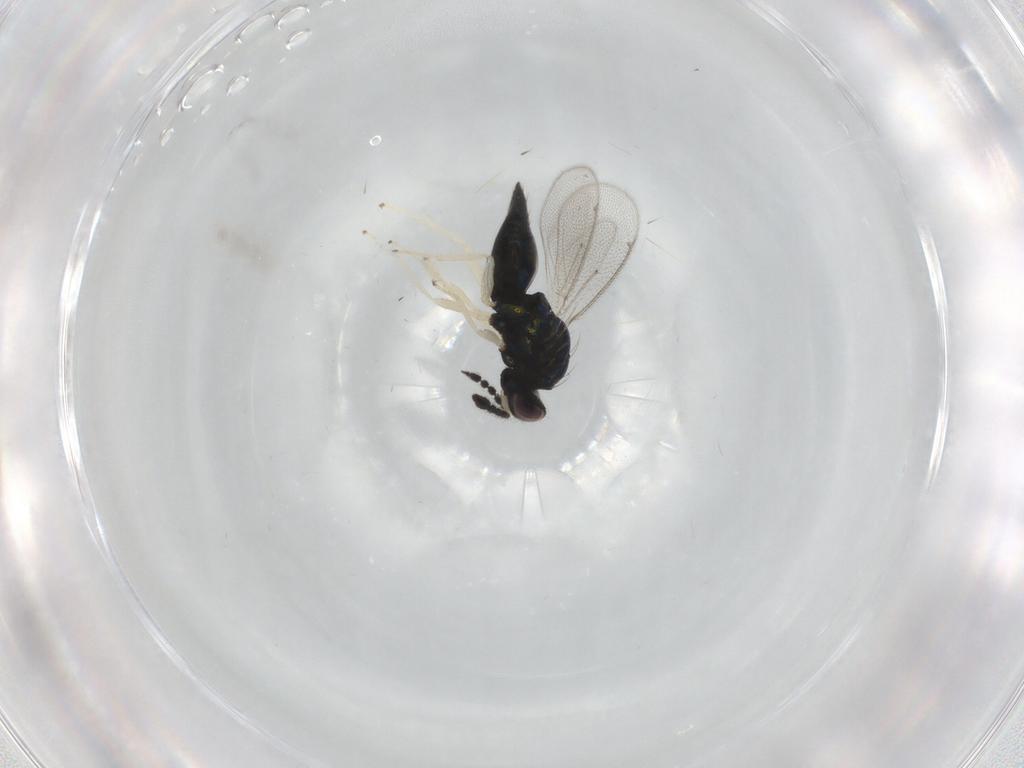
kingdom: Animalia
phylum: Arthropoda
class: Insecta
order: Hymenoptera
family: Eulophidae
